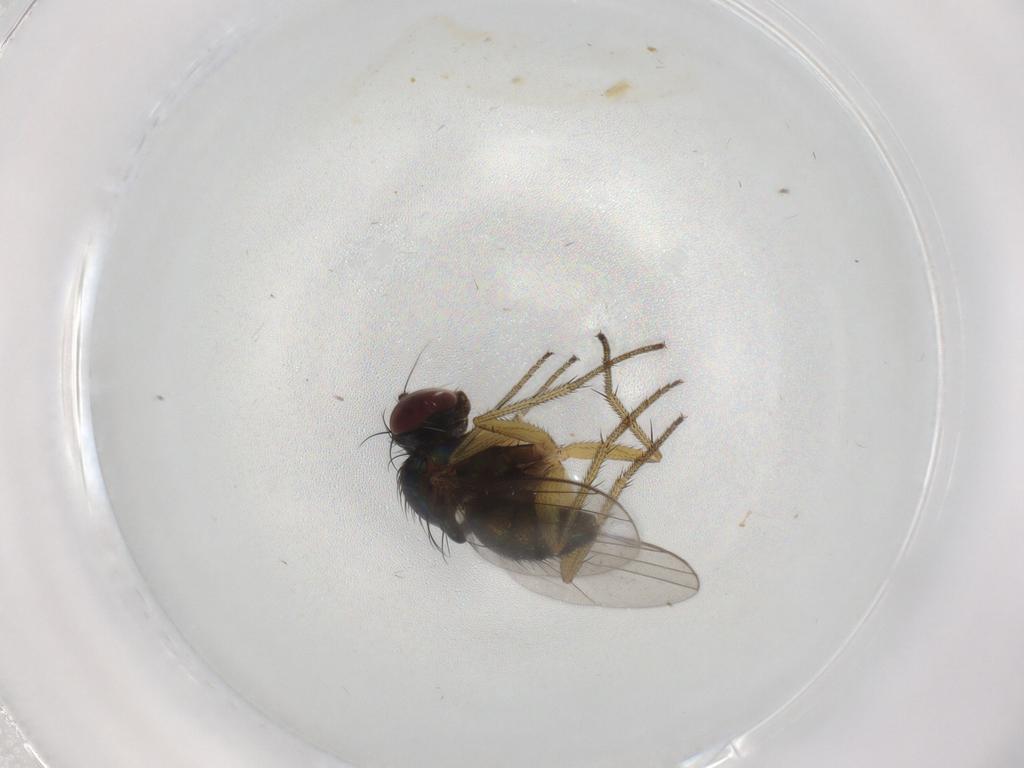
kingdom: Animalia
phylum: Arthropoda
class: Insecta
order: Diptera
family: Dolichopodidae
